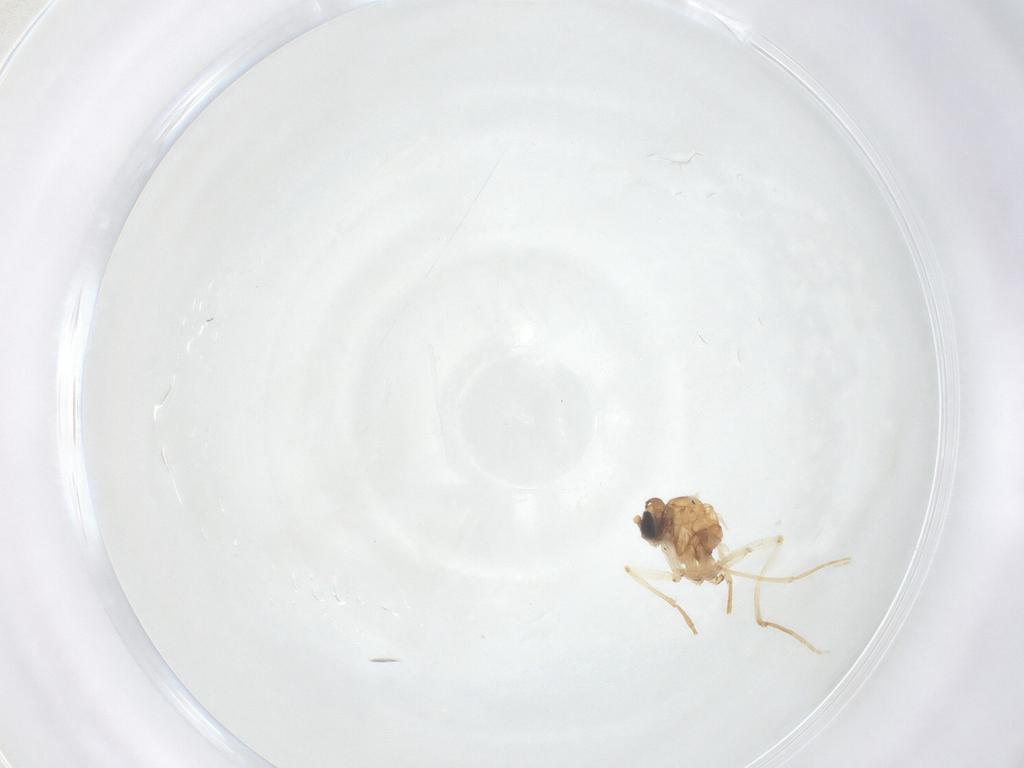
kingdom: Animalia
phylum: Arthropoda
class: Insecta
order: Diptera
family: Sciaridae
